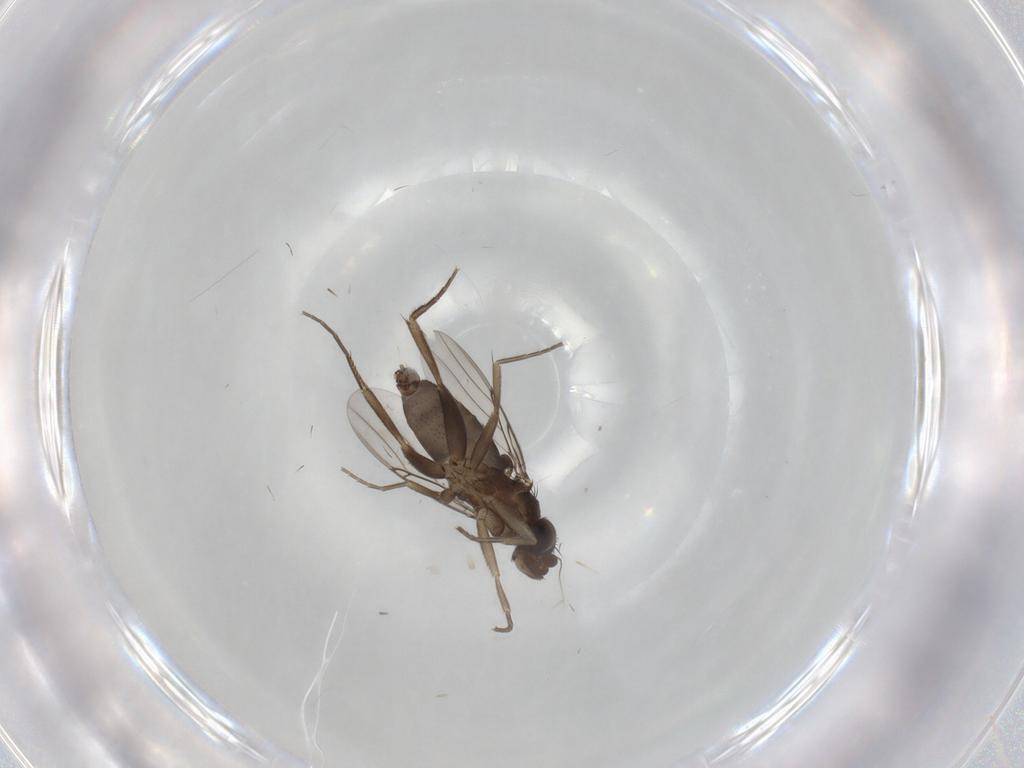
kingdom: Animalia
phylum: Arthropoda
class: Insecta
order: Diptera
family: Phoridae
